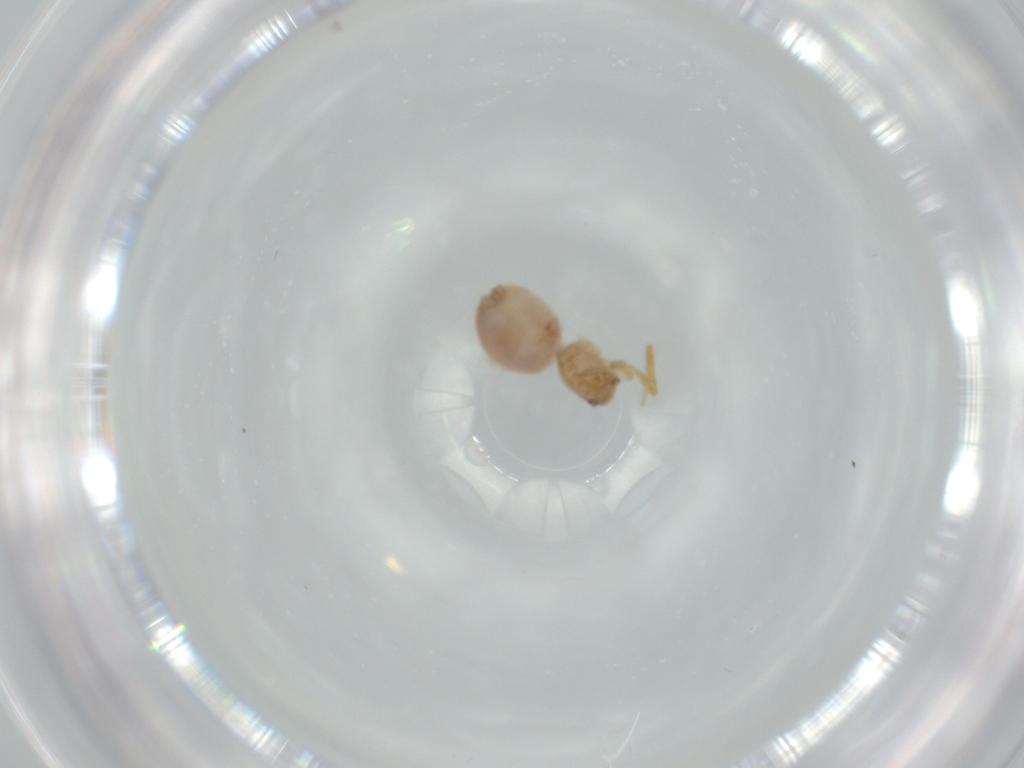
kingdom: Animalia
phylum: Arthropoda
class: Arachnida
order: Araneae
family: Oonopidae
